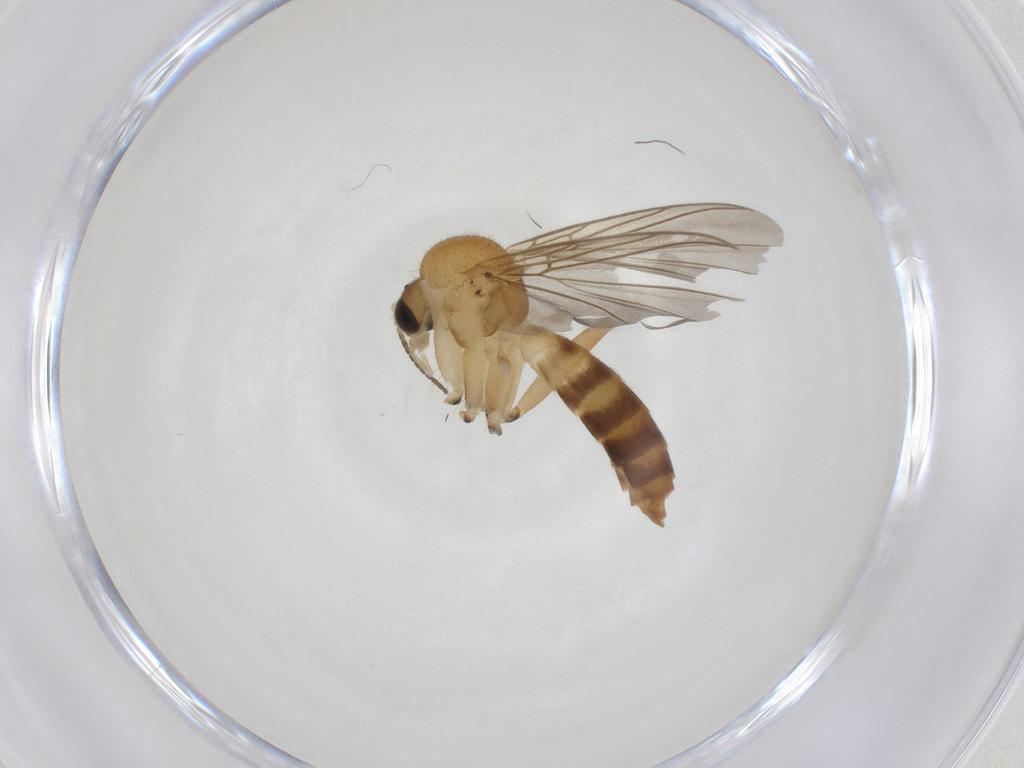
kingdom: Animalia
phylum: Arthropoda
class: Insecta
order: Diptera
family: Mycetophilidae
